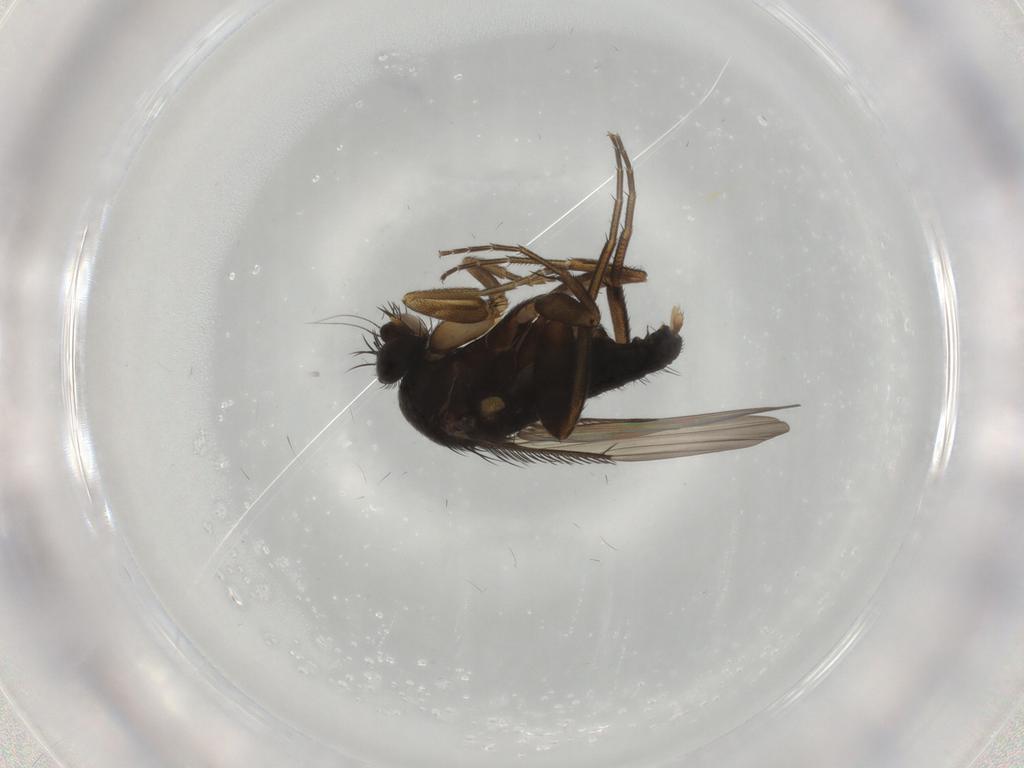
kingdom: Animalia
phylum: Arthropoda
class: Insecta
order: Diptera
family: Phoridae
